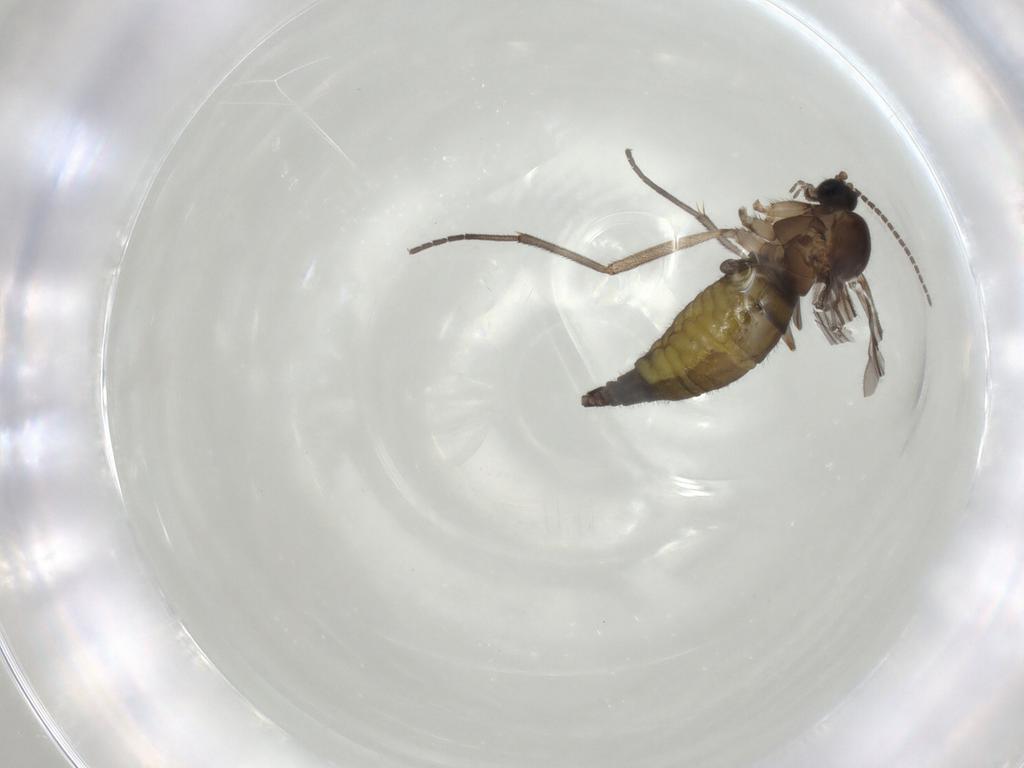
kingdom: Animalia
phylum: Arthropoda
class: Insecta
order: Diptera
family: Sciaridae
